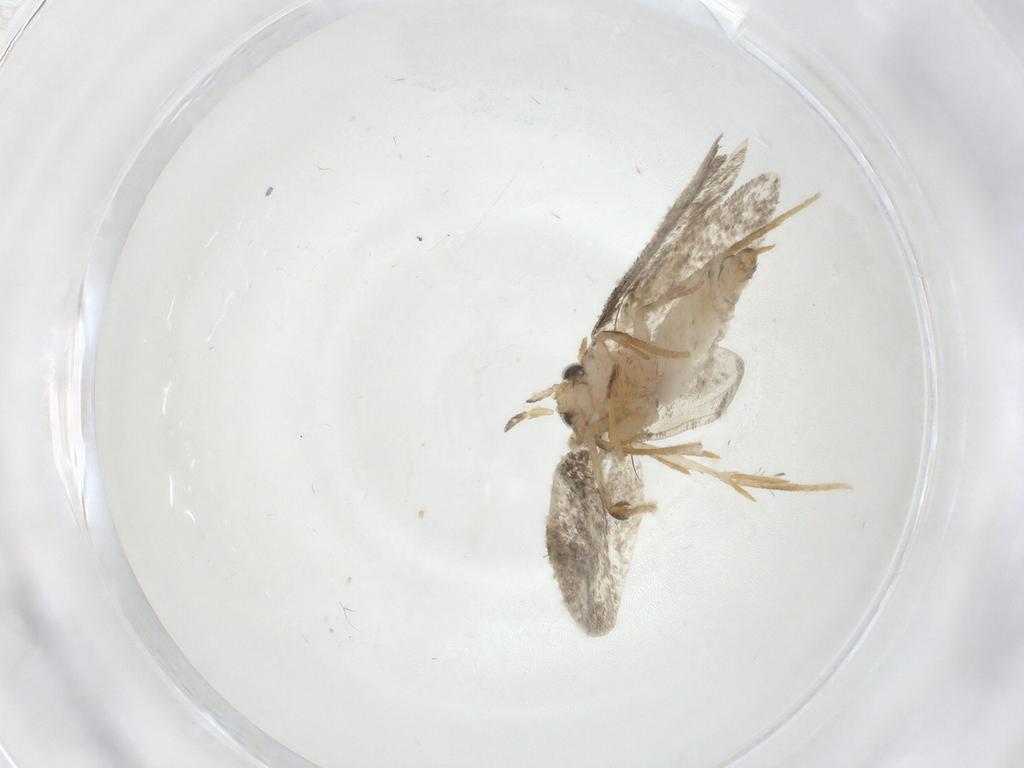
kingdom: Animalia
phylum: Arthropoda
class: Insecta
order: Lepidoptera
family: Psychidae
